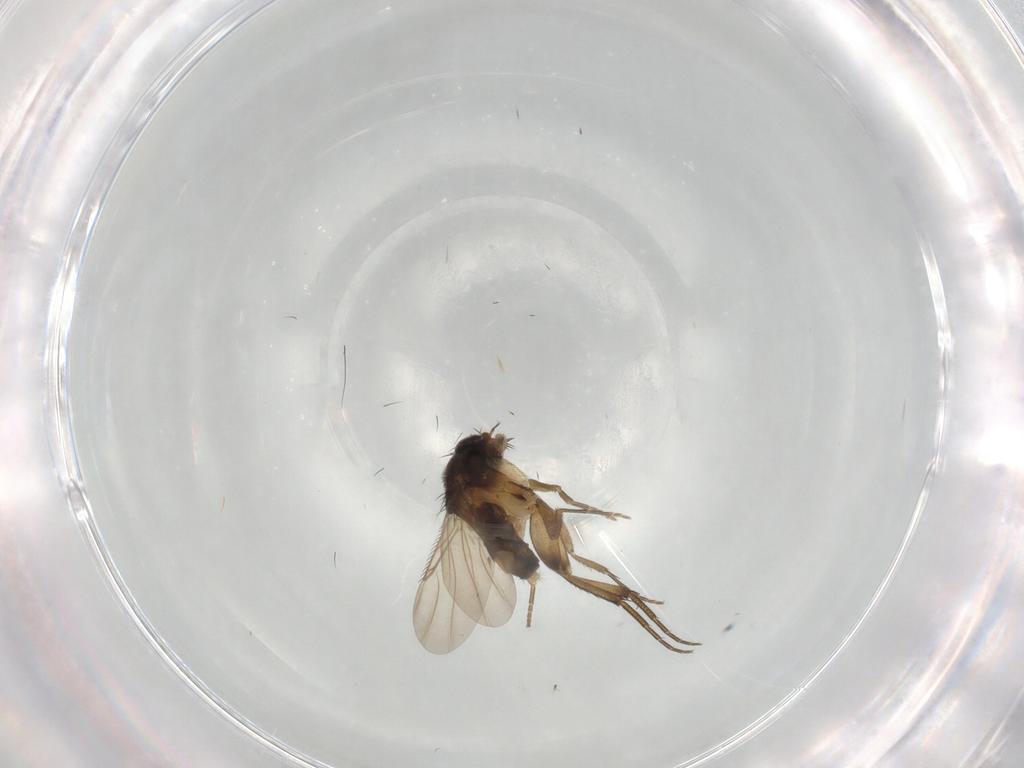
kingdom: Animalia
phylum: Arthropoda
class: Insecta
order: Diptera
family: Phoridae
